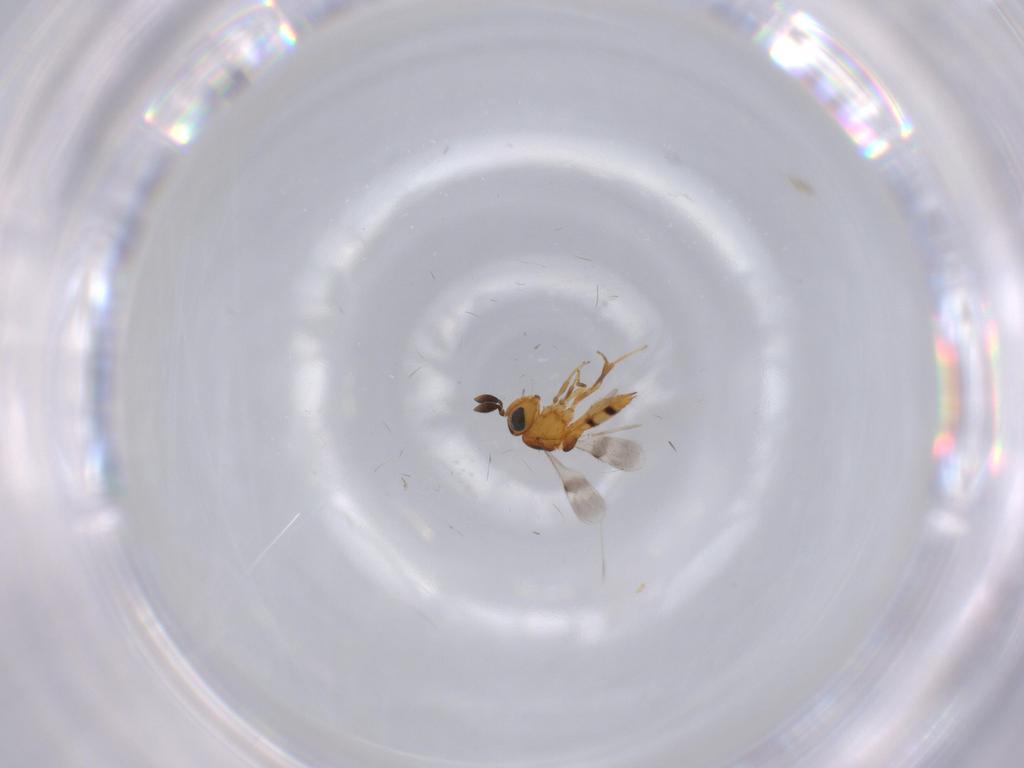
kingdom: Animalia
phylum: Arthropoda
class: Insecta
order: Hymenoptera
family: Scelionidae
